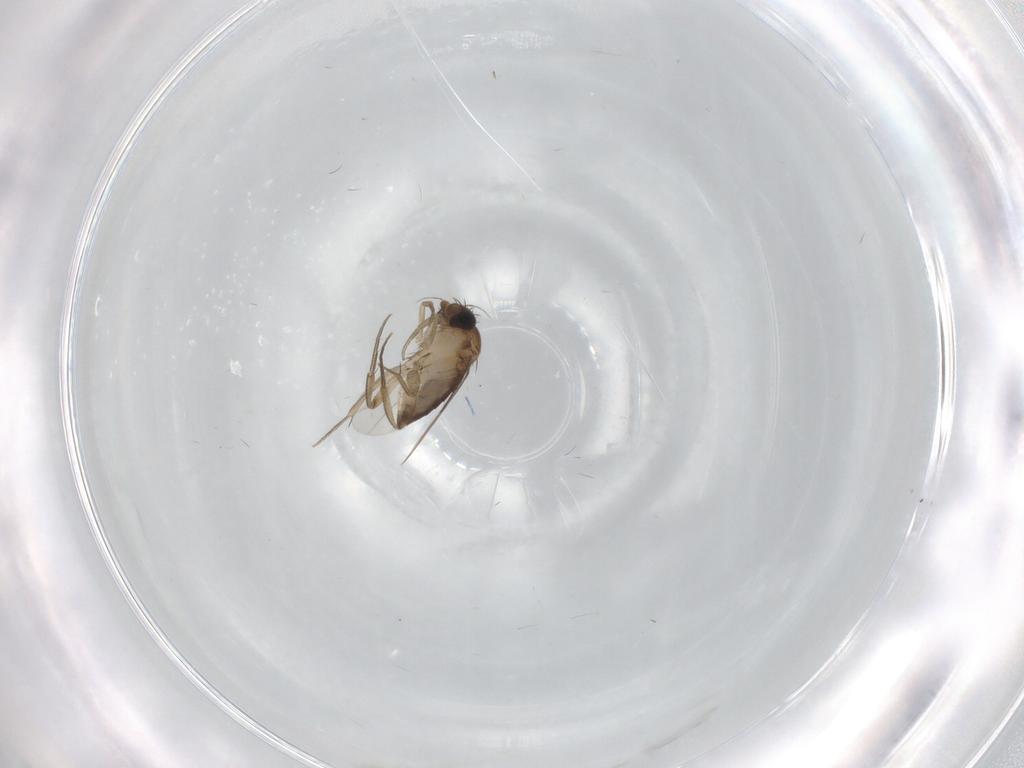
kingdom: Animalia
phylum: Arthropoda
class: Insecta
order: Diptera
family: Phoridae
